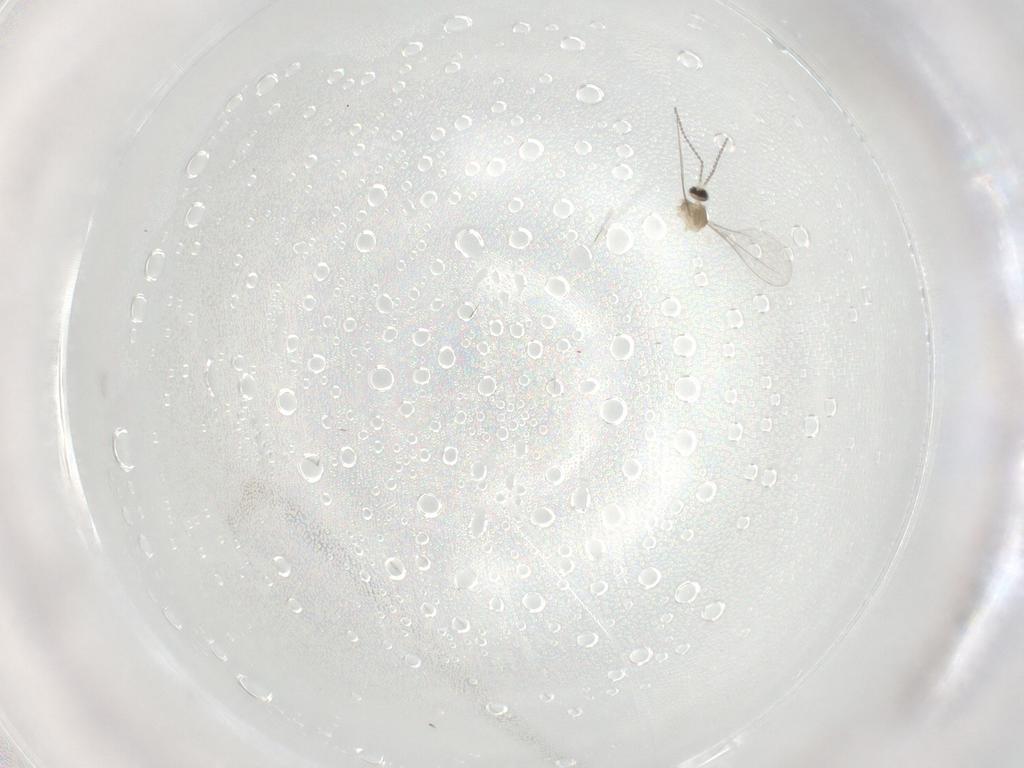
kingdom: Animalia
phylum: Arthropoda
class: Insecta
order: Diptera
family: Cecidomyiidae
